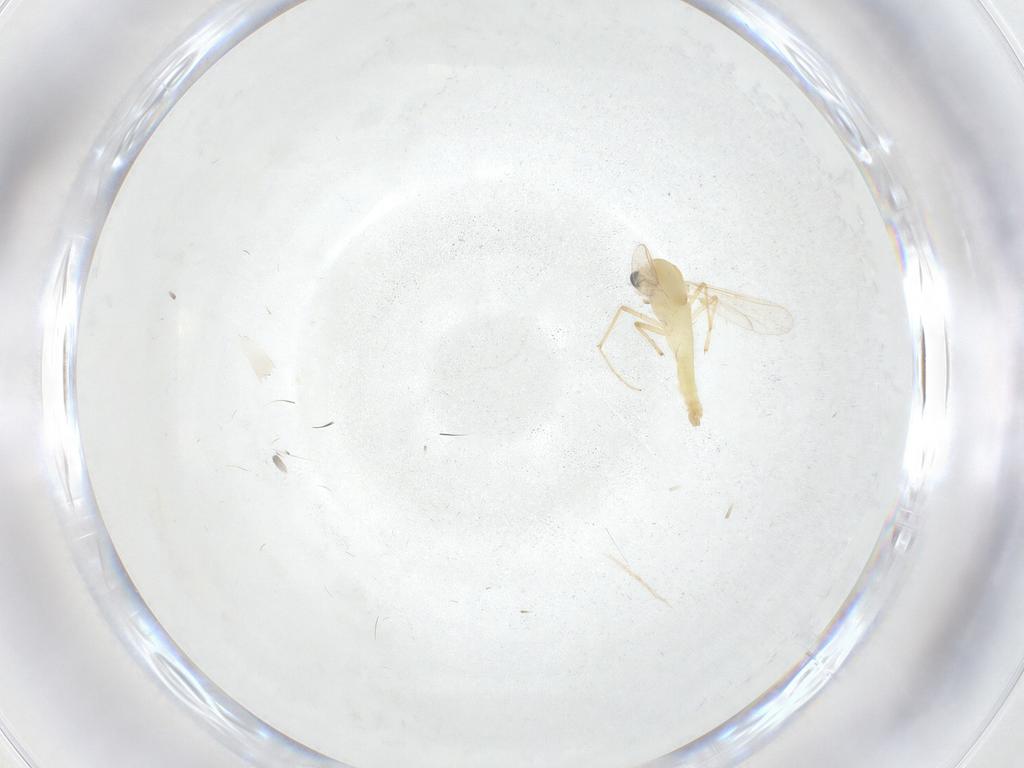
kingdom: Animalia
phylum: Arthropoda
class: Insecta
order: Diptera
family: Chironomidae
